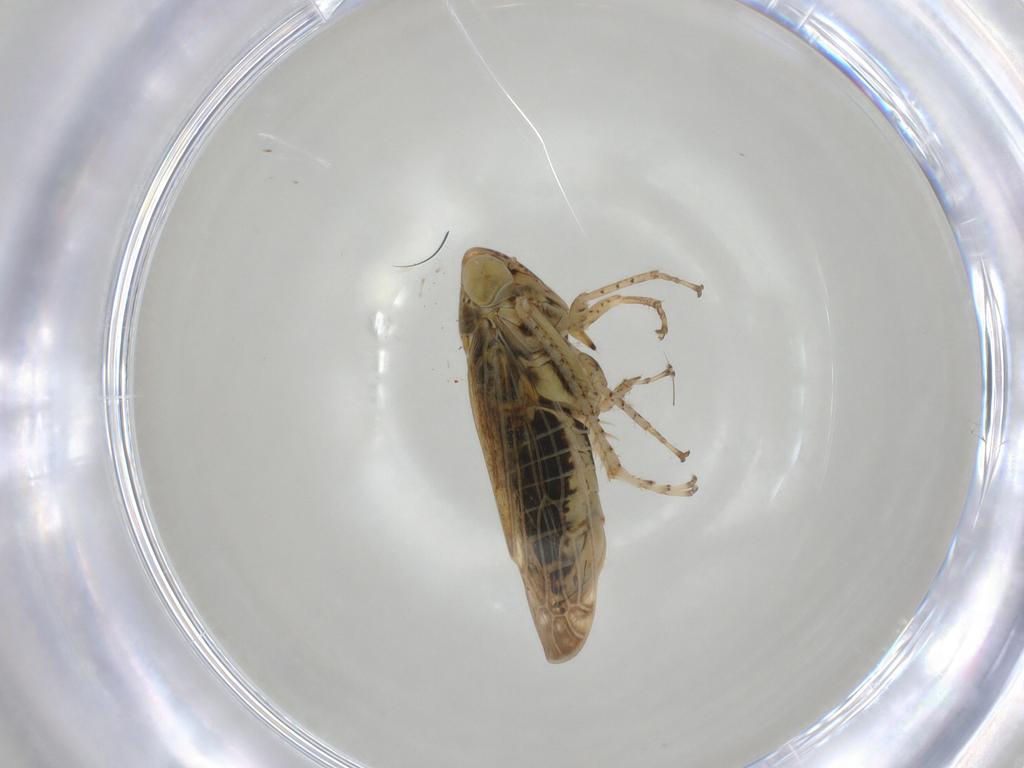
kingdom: Animalia
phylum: Arthropoda
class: Insecta
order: Hemiptera
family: Cicadellidae
